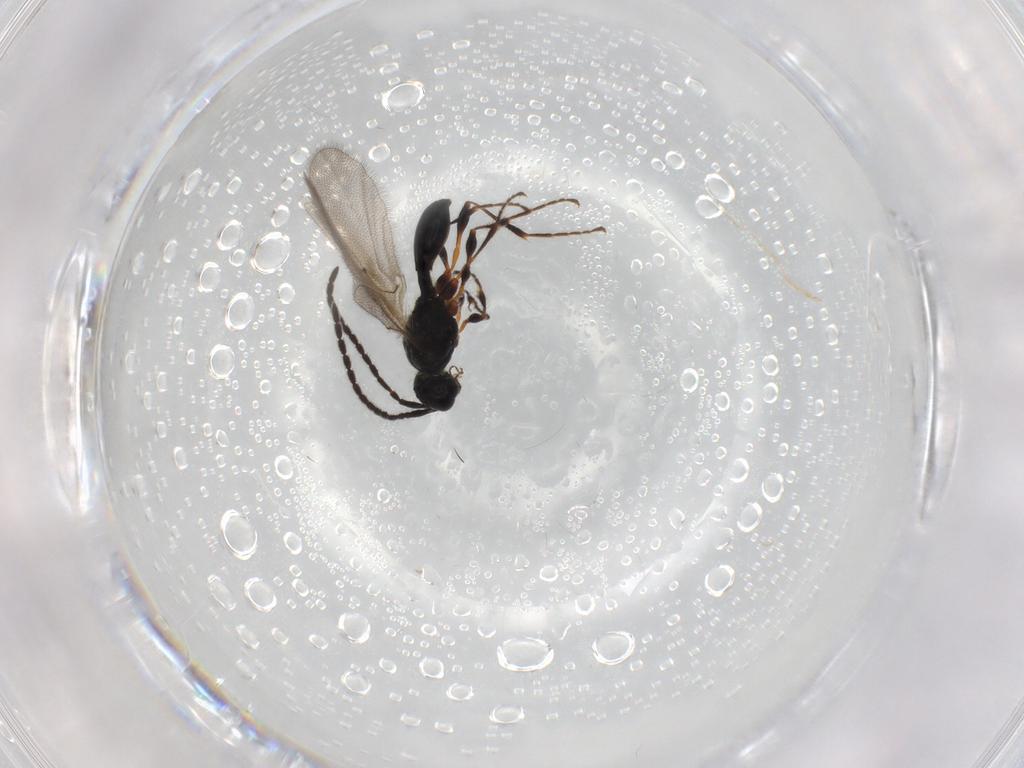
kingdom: Animalia
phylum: Arthropoda
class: Insecta
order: Hymenoptera
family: Diapriidae
